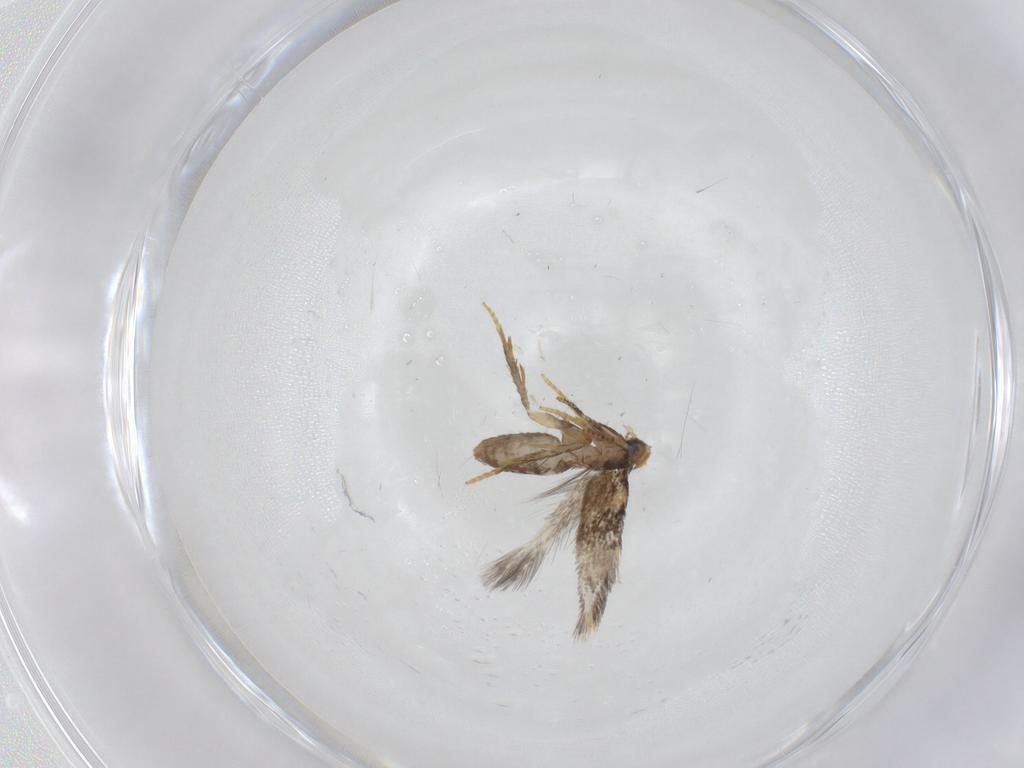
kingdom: Animalia
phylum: Arthropoda
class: Insecta
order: Lepidoptera
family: Nepticulidae
